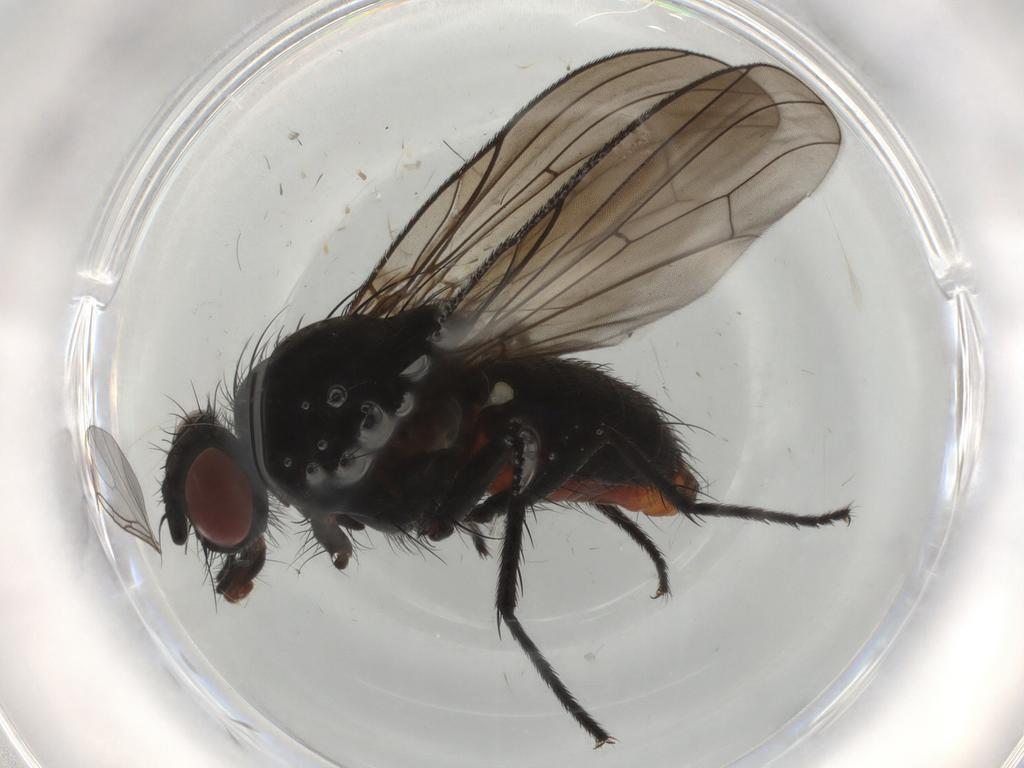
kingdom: Animalia
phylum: Arthropoda
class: Insecta
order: Diptera
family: Anthomyiidae
